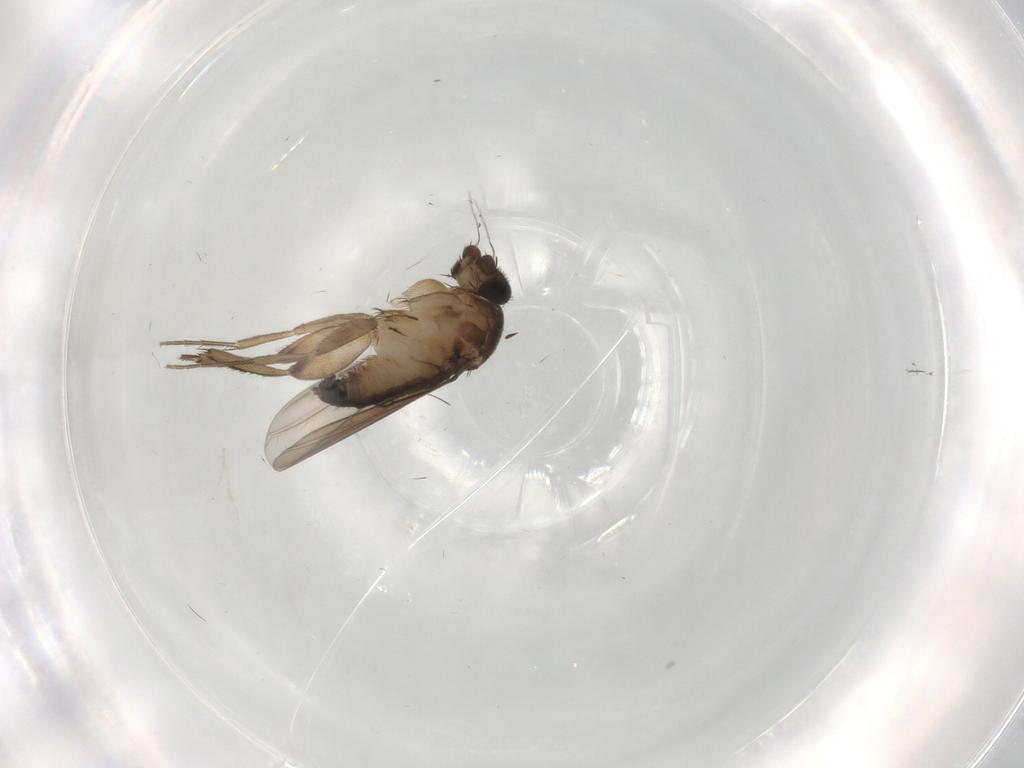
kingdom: Animalia
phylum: Arthropoda
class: Insecta
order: Diptera
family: Phoridae
